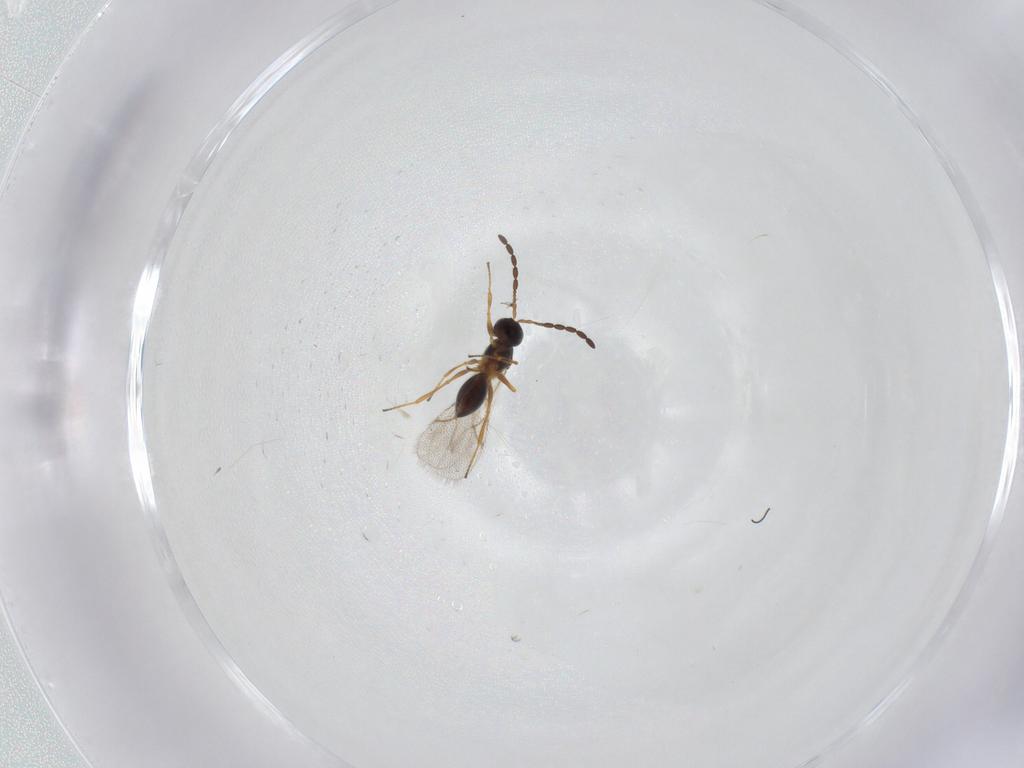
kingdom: Animalia
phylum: Arthropoda
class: Insecta
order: Hymenoptera
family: Figitidae
